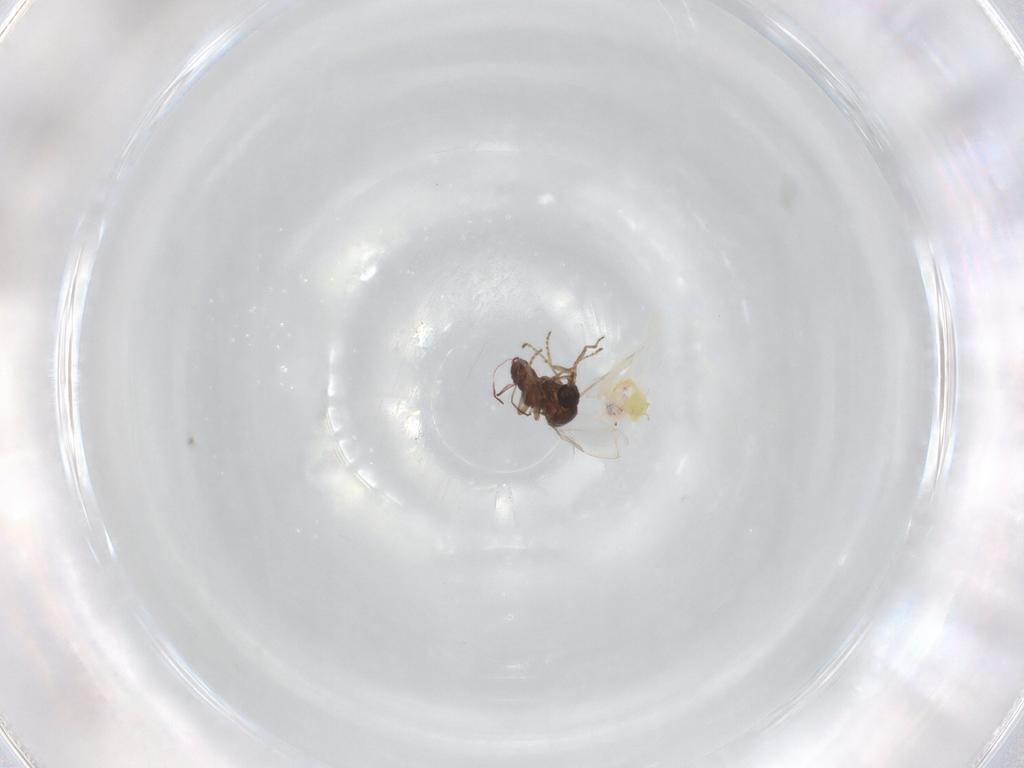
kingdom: Animalia
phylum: Arthropoda
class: Insecta
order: Diptera
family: Ceratopogonidae
